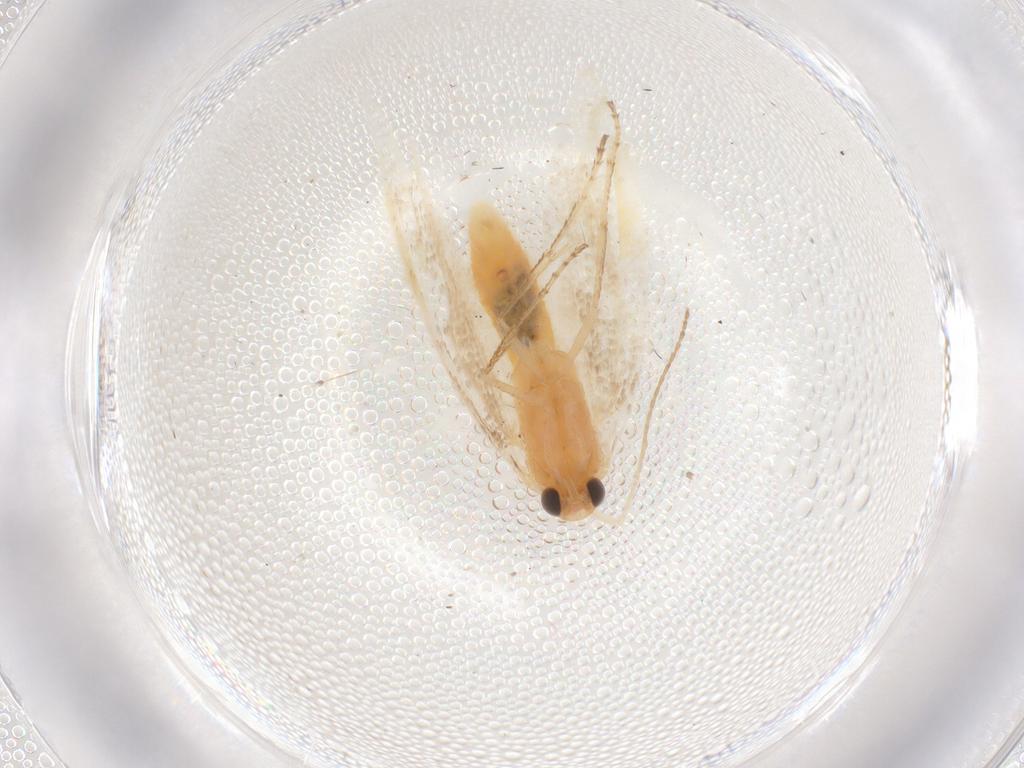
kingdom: Animalia
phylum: Arthropoda
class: Insecta
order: Lepidoptera
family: Argyresthiidae
